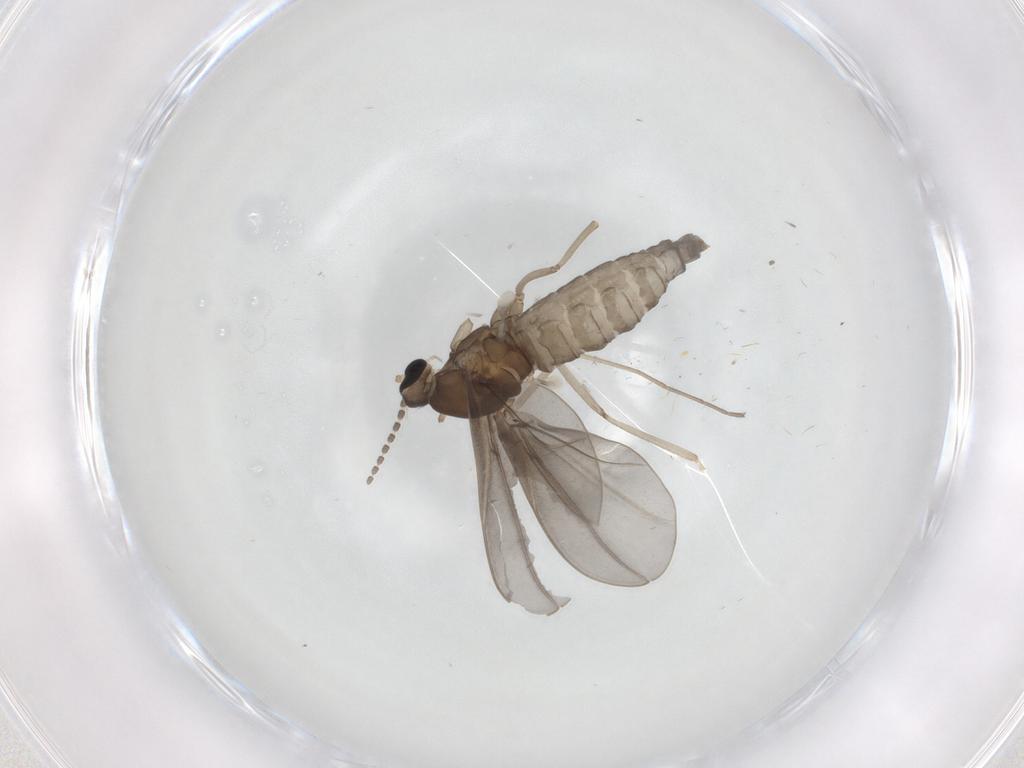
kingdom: Animalia
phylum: Arthropoda
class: Insecta
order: Diptera
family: Cecidomyiidae
